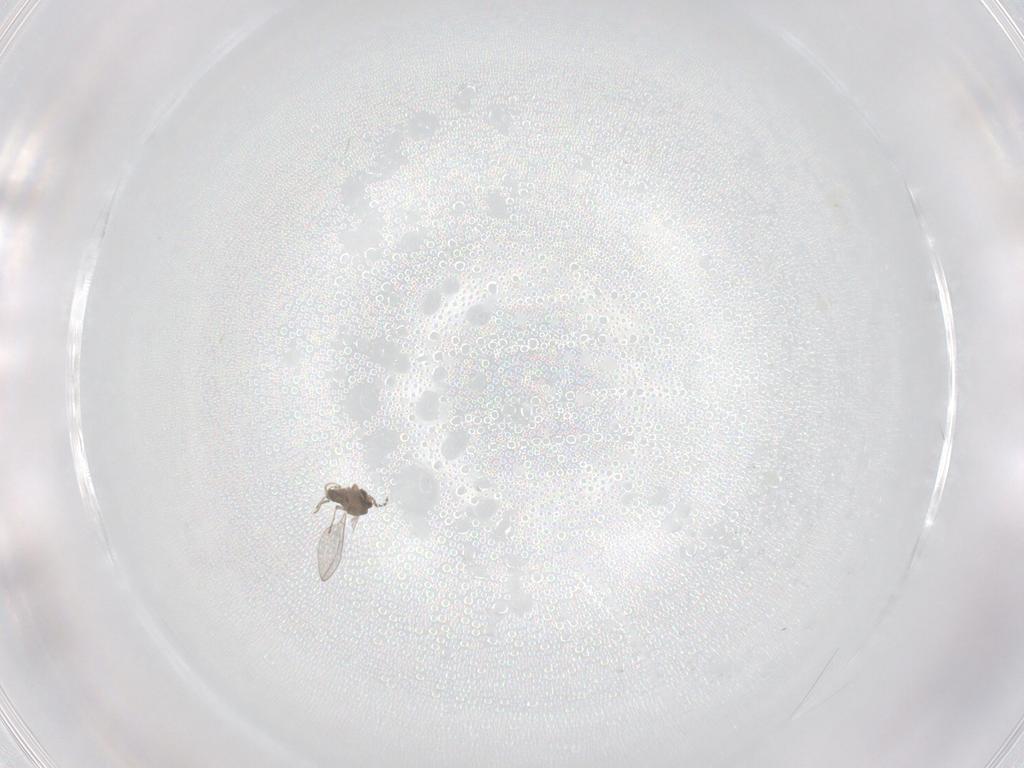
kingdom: Animalia
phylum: Arthropoda
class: Insecta
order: Diptera
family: Cecidomyiidae
